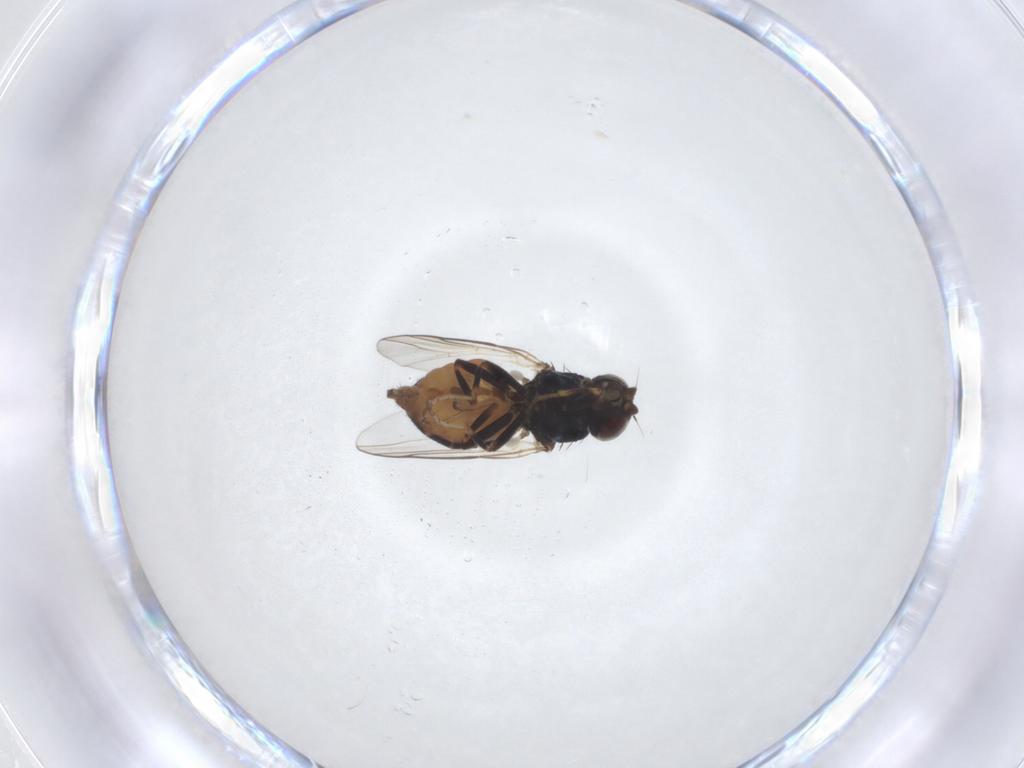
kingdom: Animalia
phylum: Arthropoda
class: Insecta
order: Diptera
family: Chloropidae
